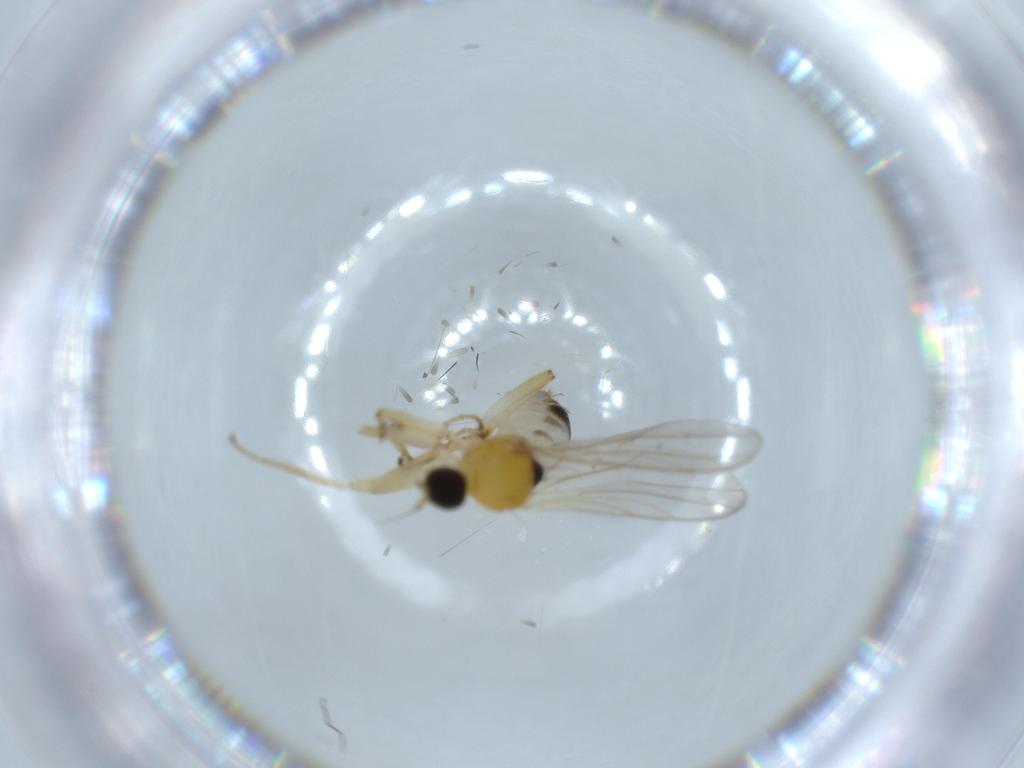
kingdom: Animalia
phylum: Arthropoda
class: Insecta
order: Diptera
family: Hybotidae
